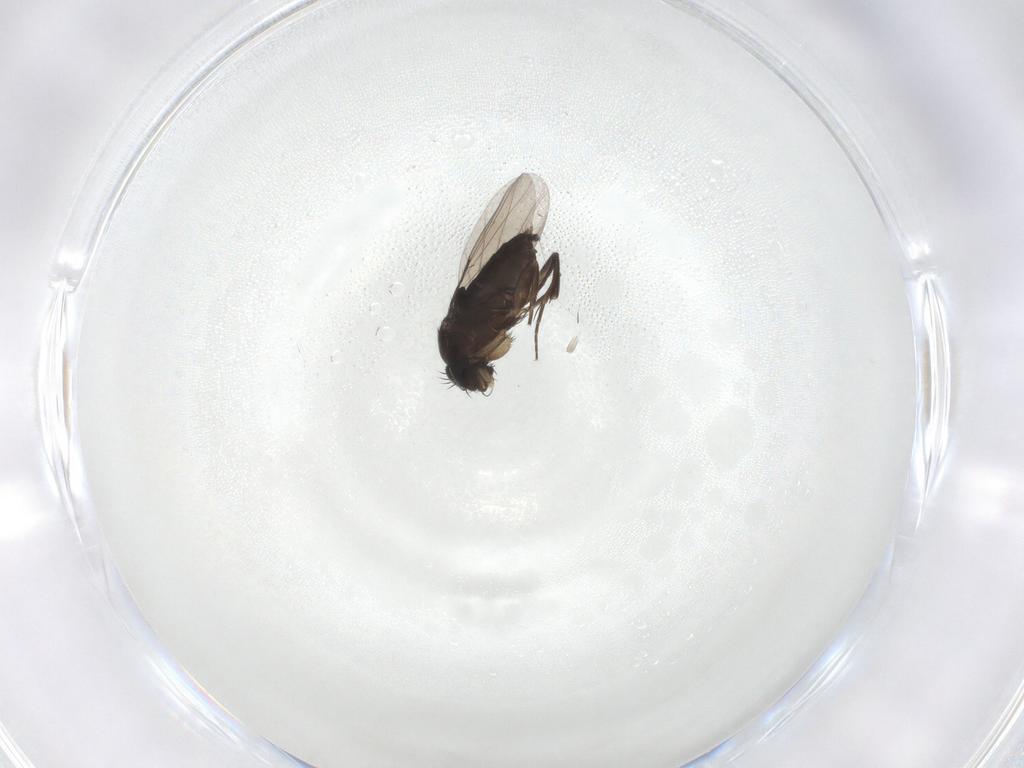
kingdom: Animalia
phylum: Arthropoda
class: Insecta
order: Diptera
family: Phoridae
